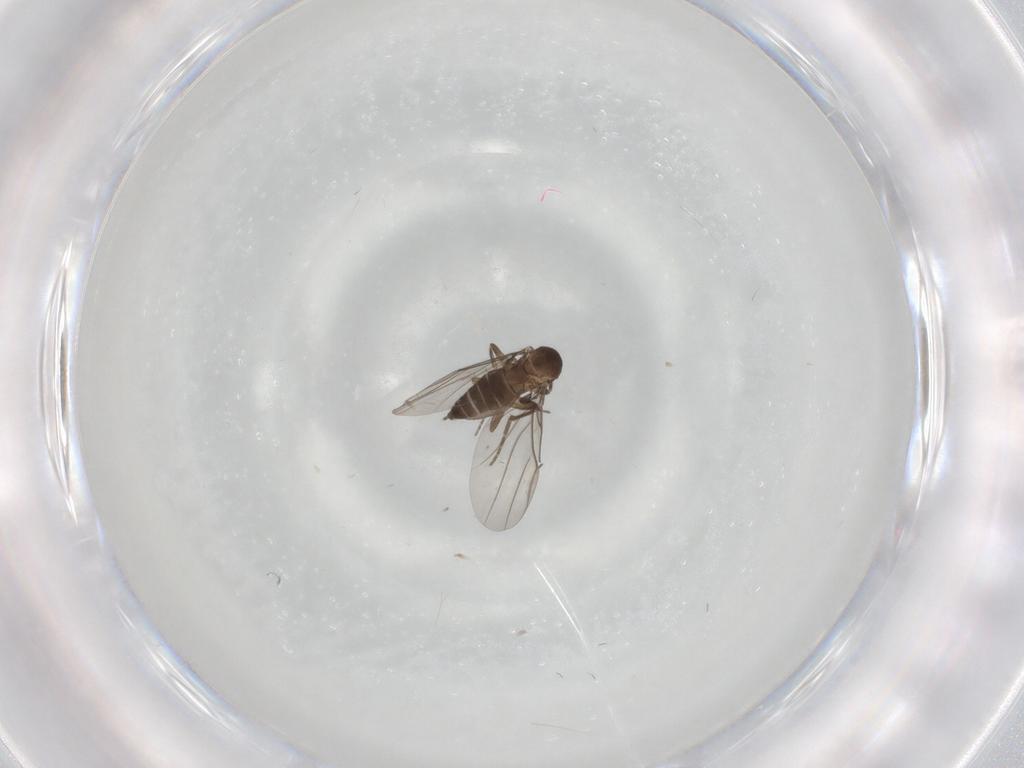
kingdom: Animalia
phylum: Arthropoda
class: Insecta
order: Diptera
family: Phoridae
